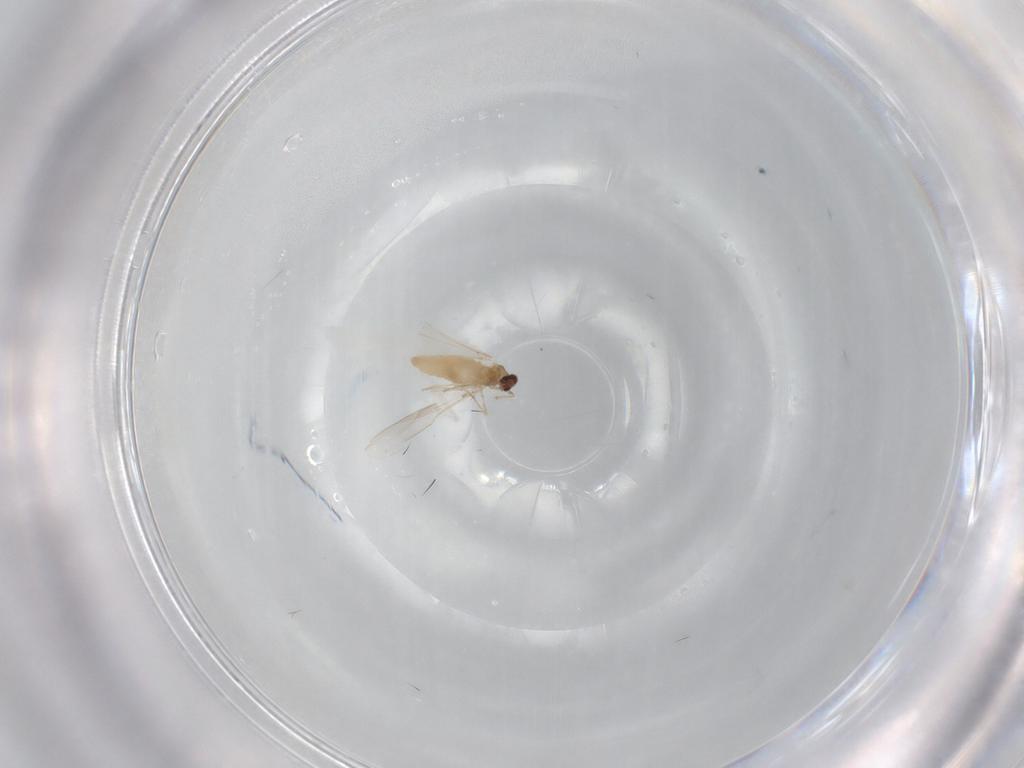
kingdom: Animalia
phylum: Arthropoda
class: Insecta
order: Diptera
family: Cecidomyiidae
